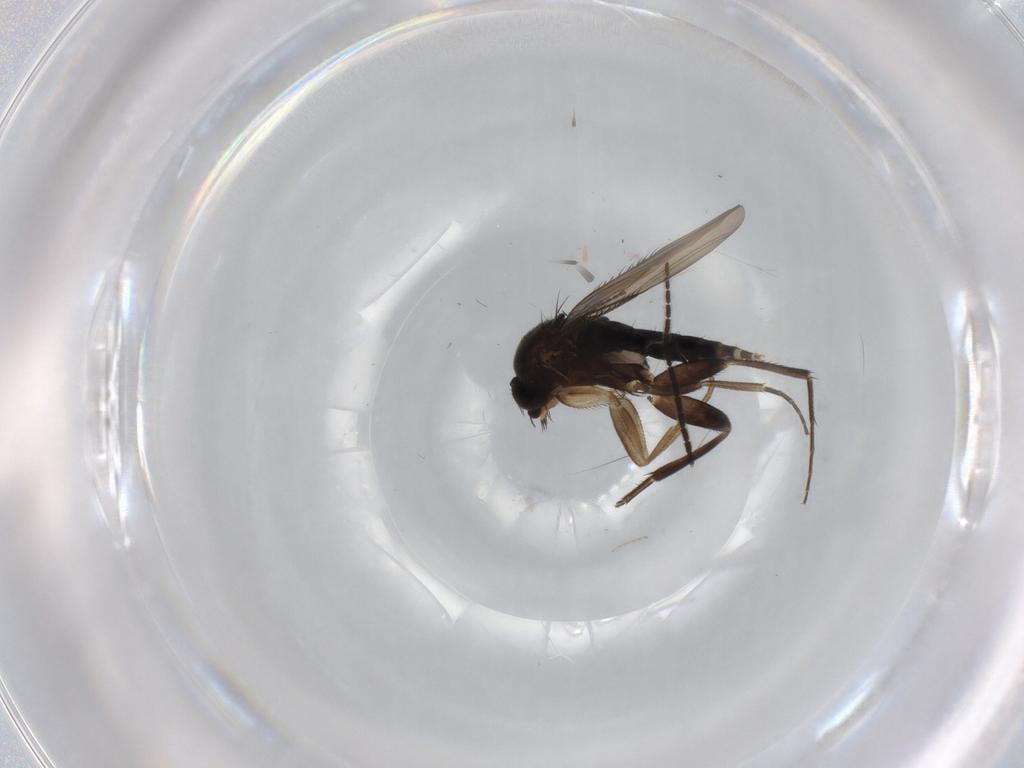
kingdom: Animalia
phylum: Arthropoda
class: Insecta
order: Diptera
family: Phoridae
